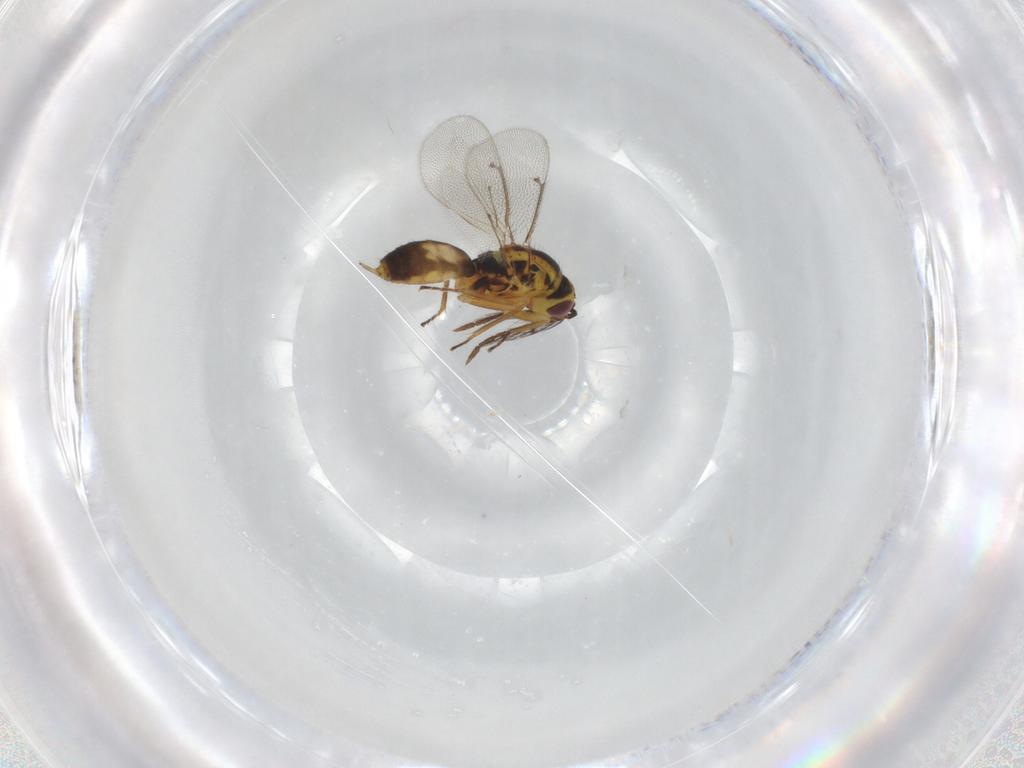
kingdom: Animalia
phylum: Arthropoda
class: Insecta
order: Hymenoptera
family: Eulophidae
